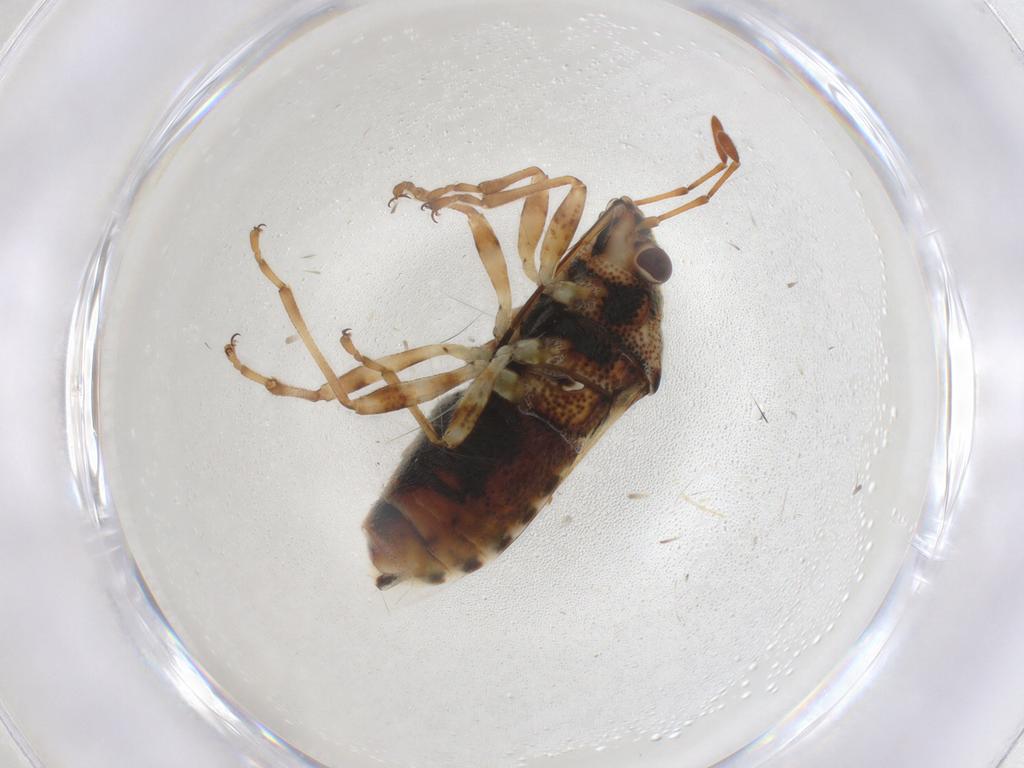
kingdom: Animalia
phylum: Arthropoda
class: Insecta
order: Hemiptera
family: Lygaeidae
